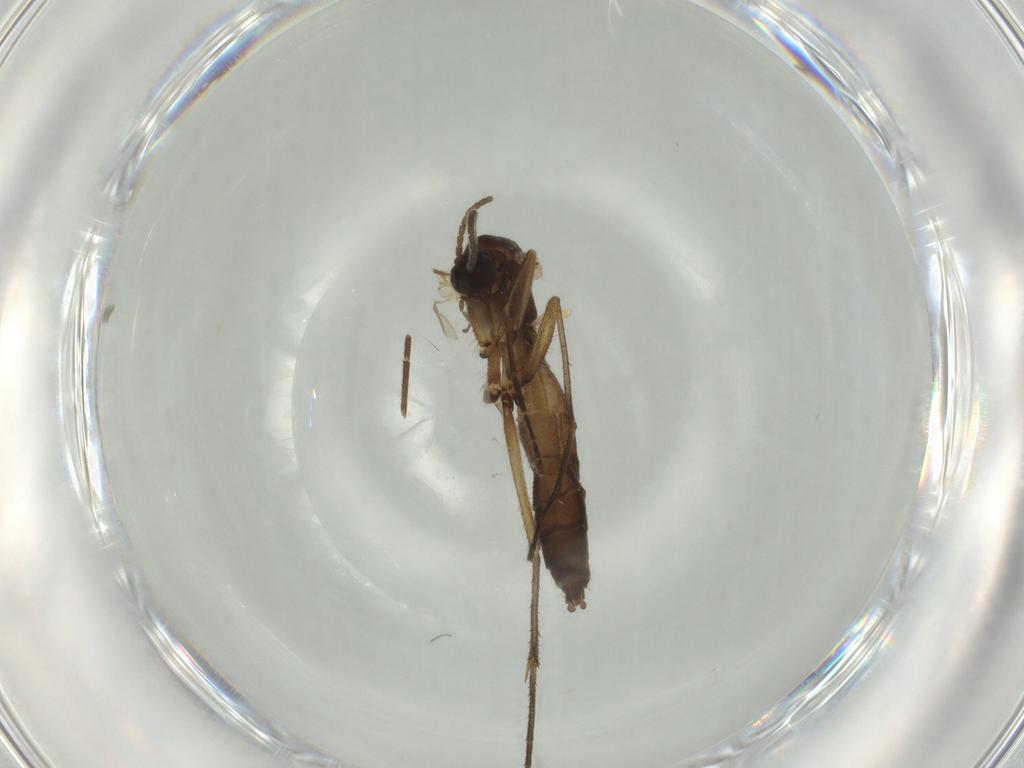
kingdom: Animalia
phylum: Arthropoda
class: Insecta
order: Diptera
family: Mycetophilidae
